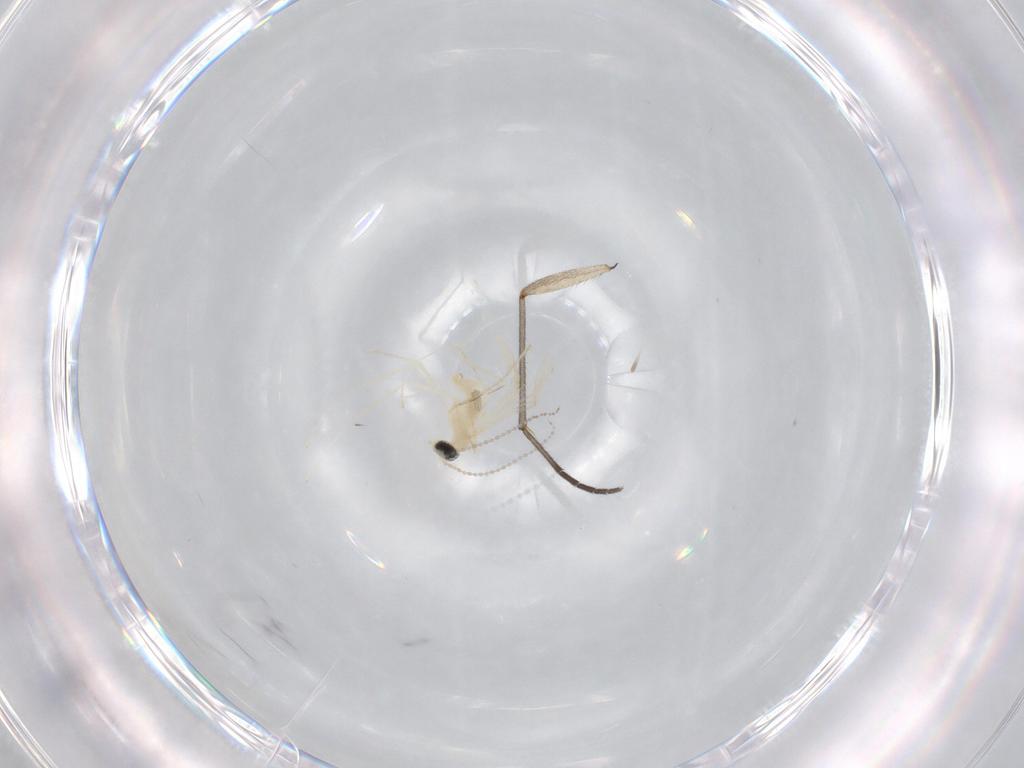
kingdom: Animalia
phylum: Arthropoda
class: Insecta
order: Diptera
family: Sciaridae
